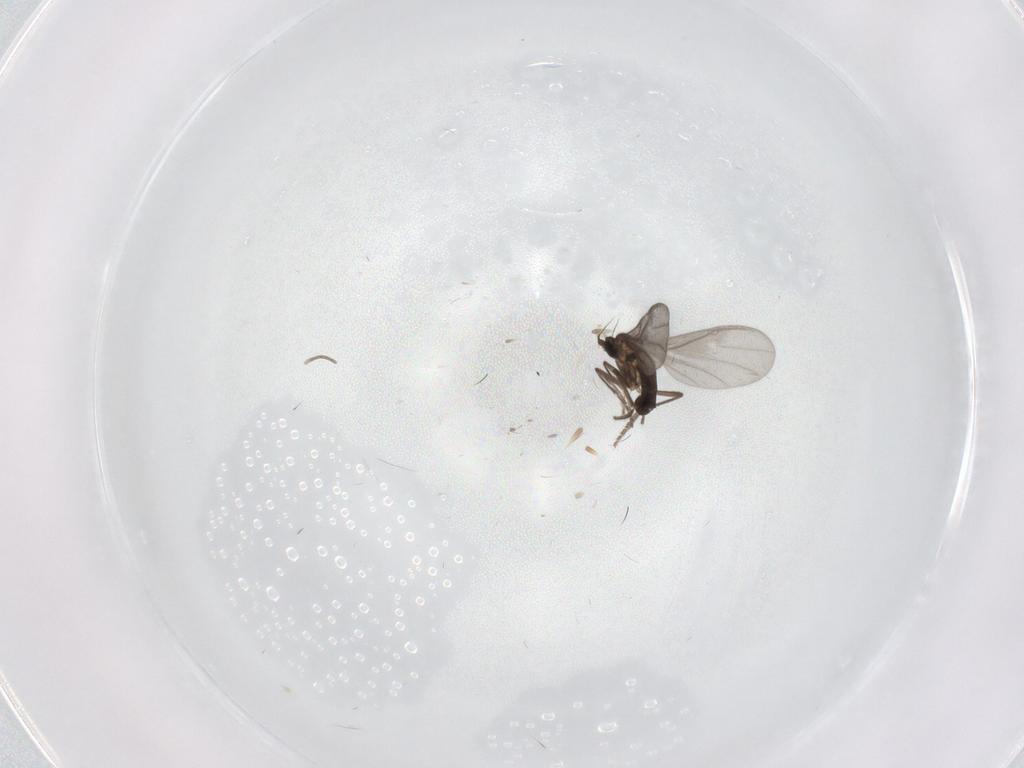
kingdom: Animalia
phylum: Arthropoda
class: Insecta
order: Diptera
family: Phoridae
